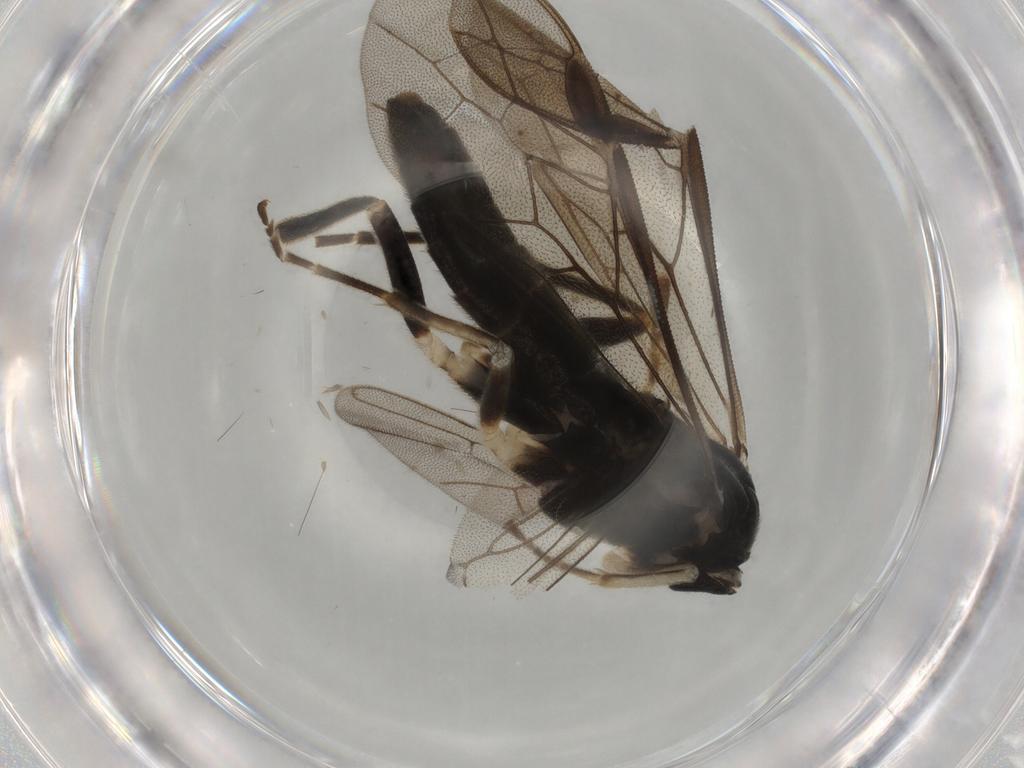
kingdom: Animalia
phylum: Arthropoda
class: Insecta
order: Hymenoptera
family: Tenthredinidae
